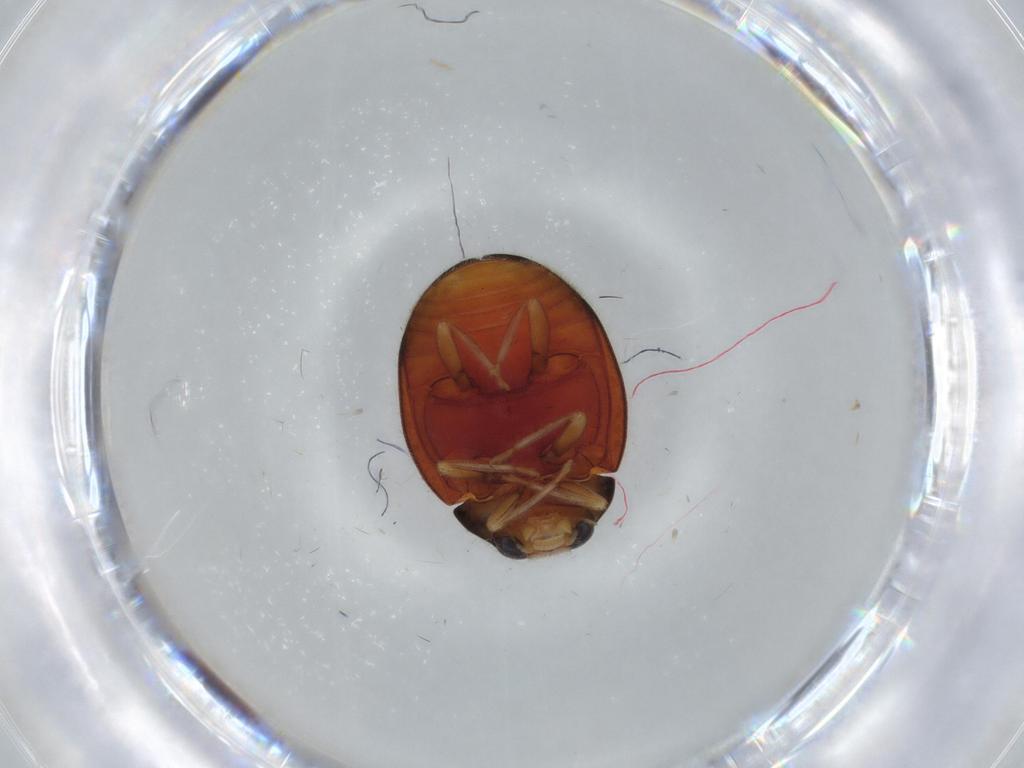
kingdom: Animalia
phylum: Arthropoda
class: Insecta
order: Coleoptera
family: Coccinellidae
